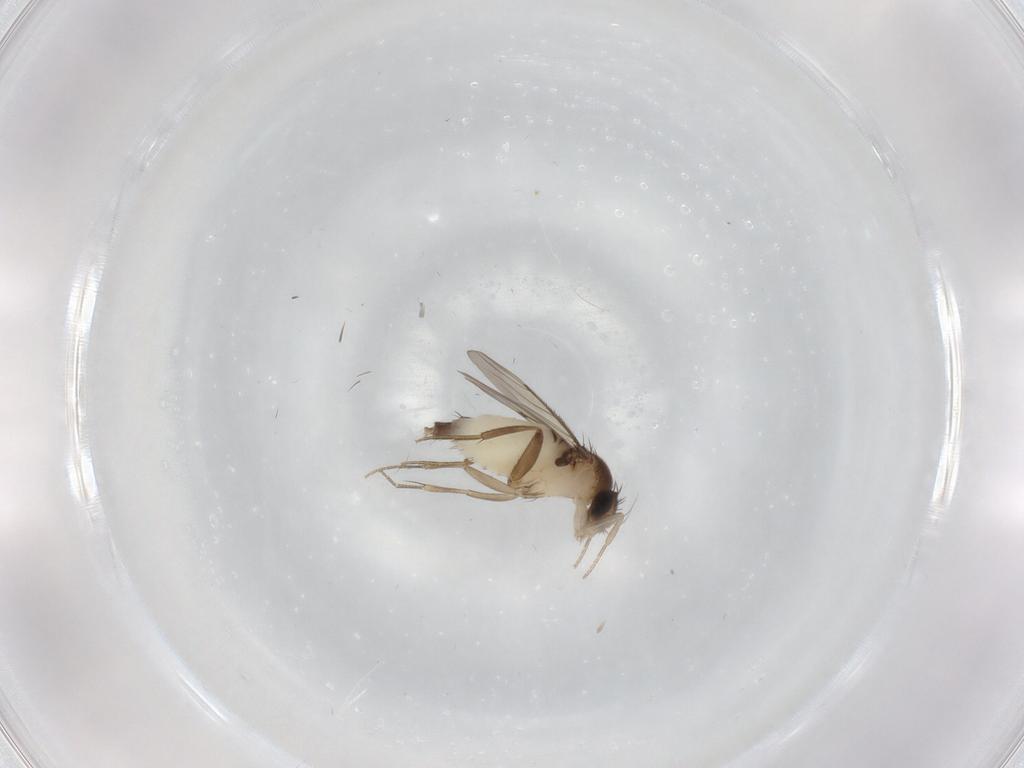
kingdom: Animalia
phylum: Arthropoda
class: Insecta
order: Diptera
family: Phoridae
